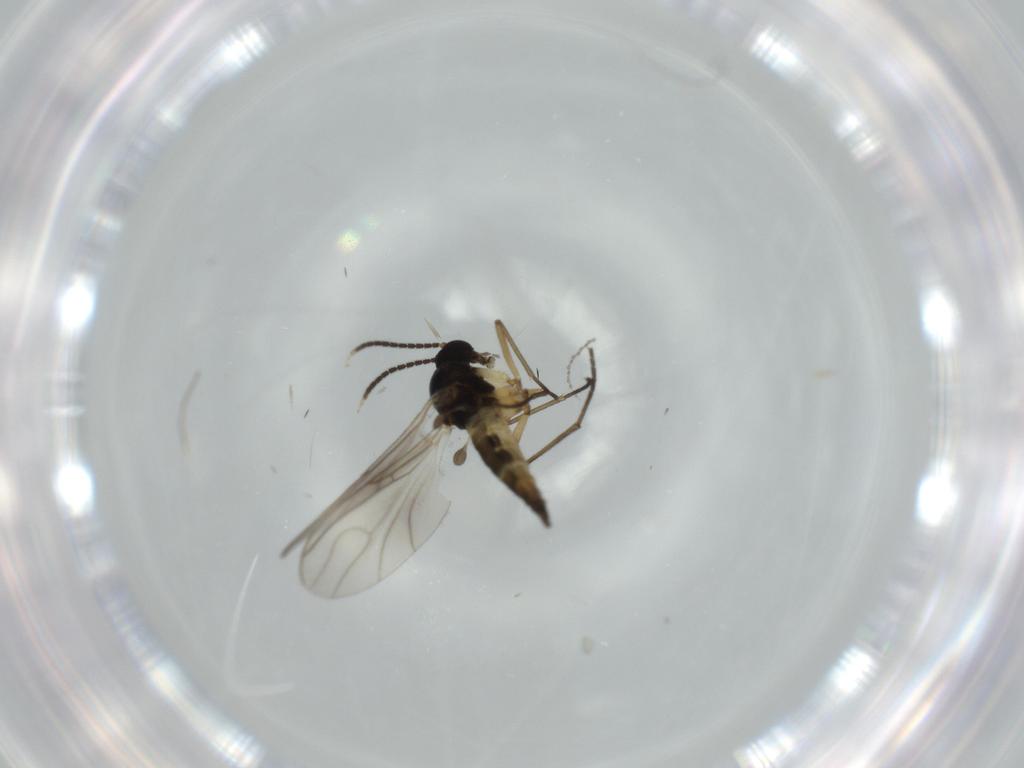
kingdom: Animalia
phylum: Arthropoda
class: Insecta
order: Diptera
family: Sciaridae
